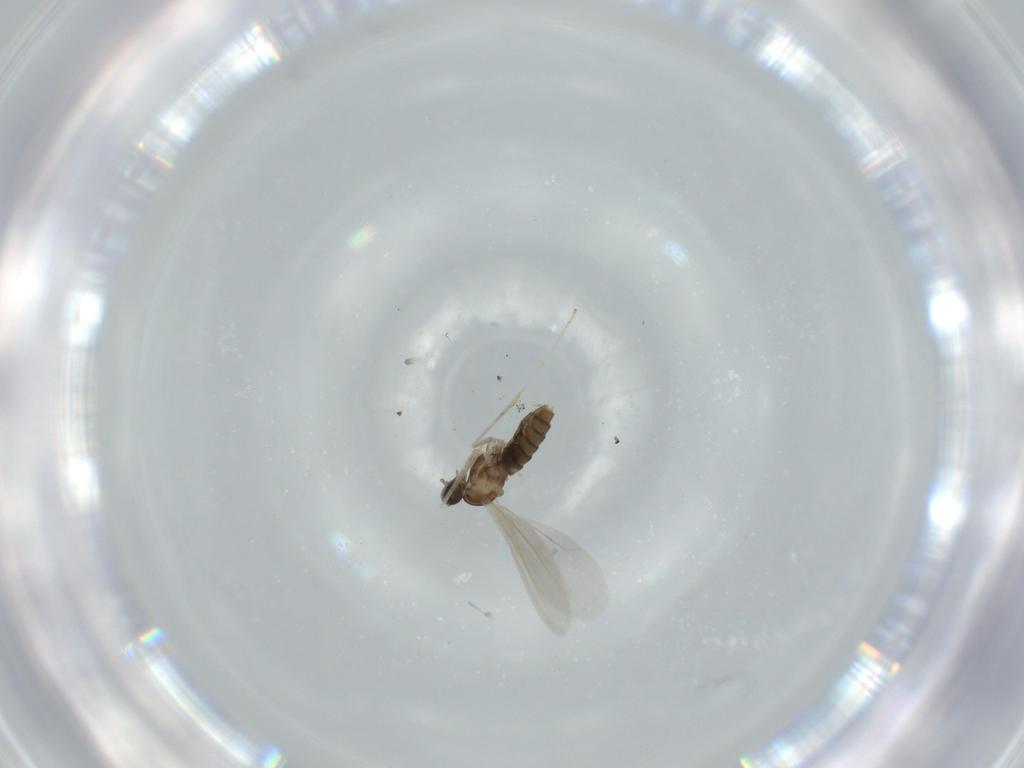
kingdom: Animalia
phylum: Arthropoda
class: Insecta
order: Diptera
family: Cecidomyiidae
